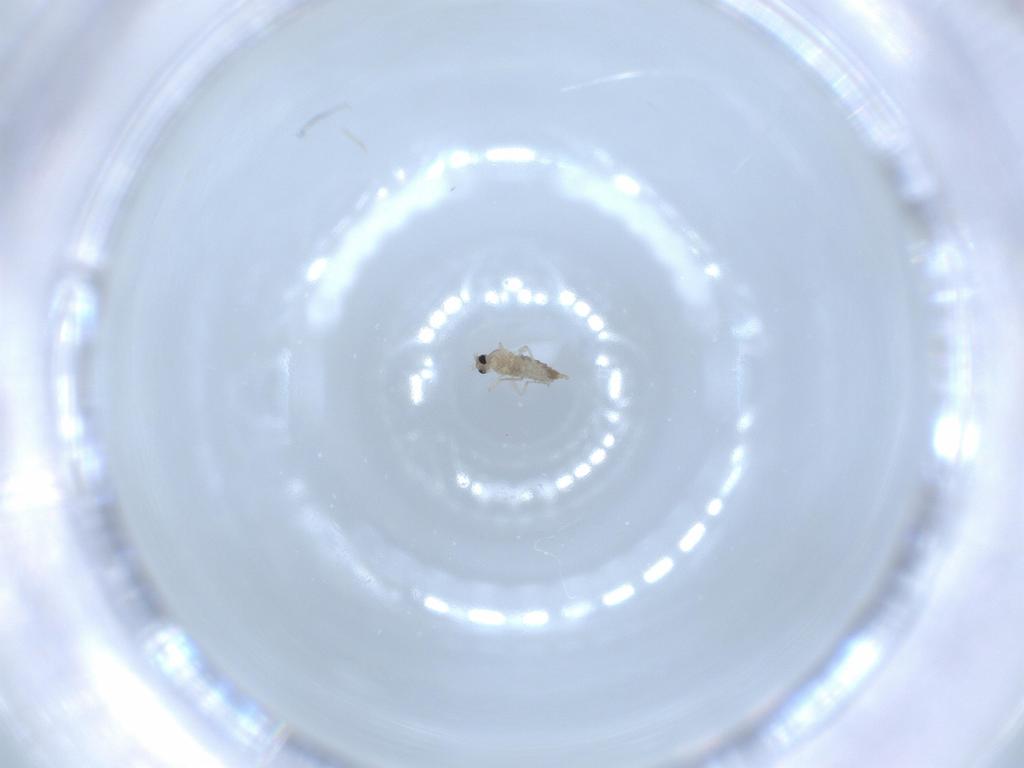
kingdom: Animalia
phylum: Arthropoda
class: Insecta
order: Diptera
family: Cecidomyiidae
